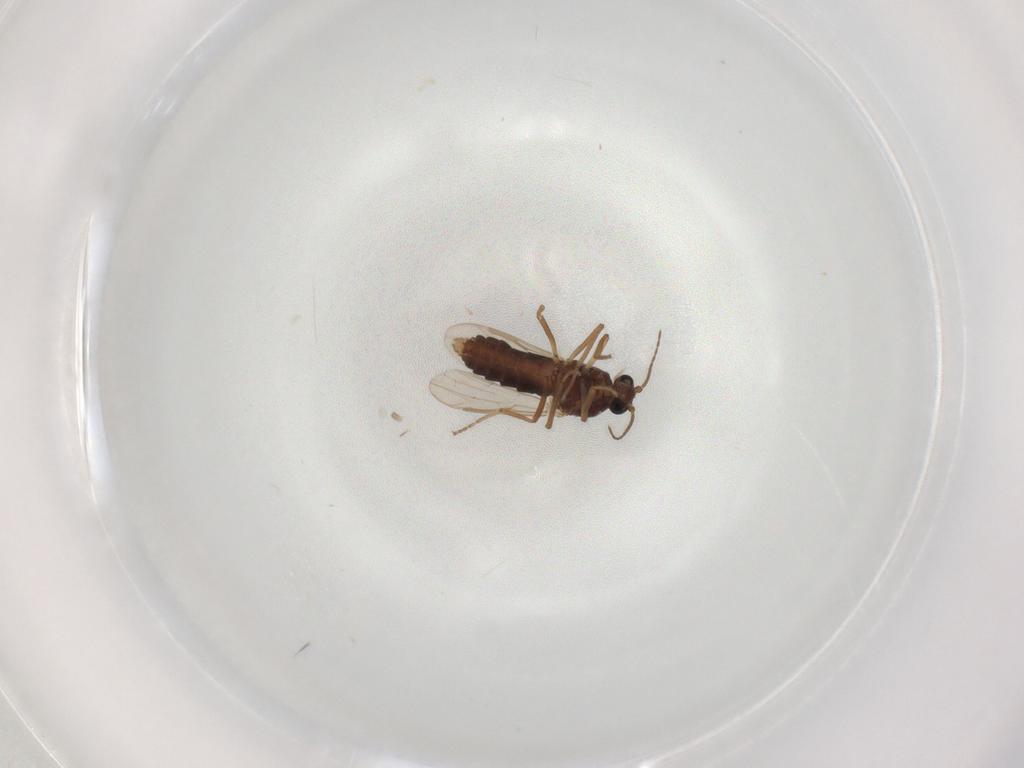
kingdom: Animalia
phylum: Arthropoda
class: Insecta
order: Diptera
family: Ceratopogonidae
